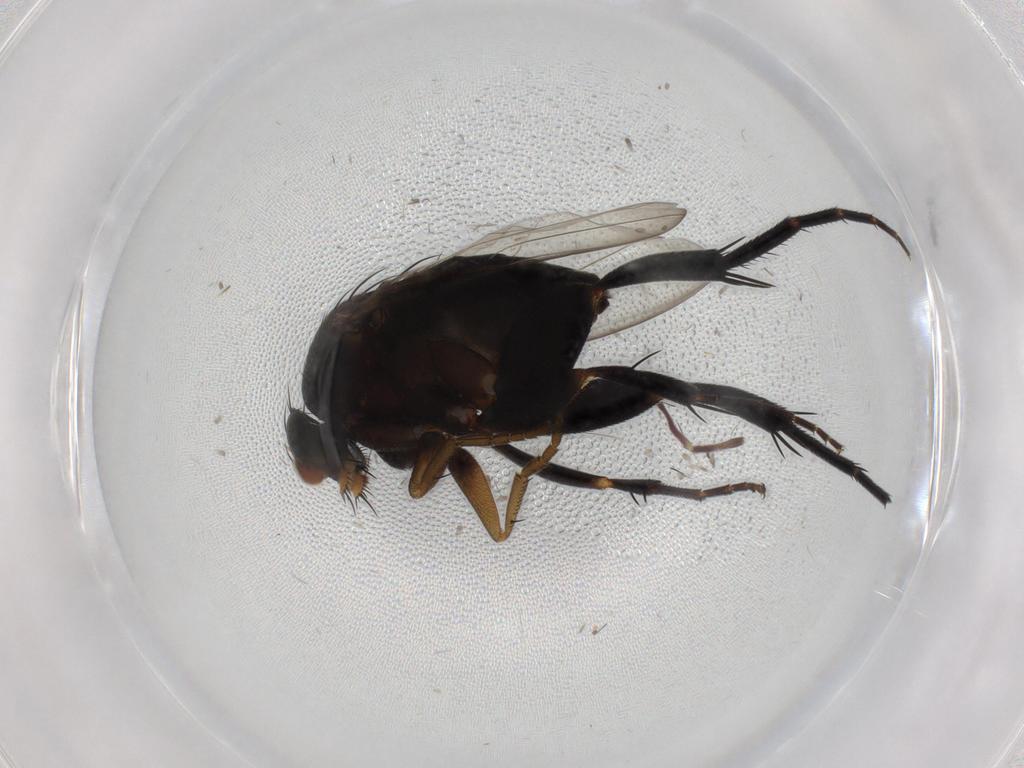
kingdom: Animalia
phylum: Arthropoda
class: Insecta
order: Diptera
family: Phoridae
